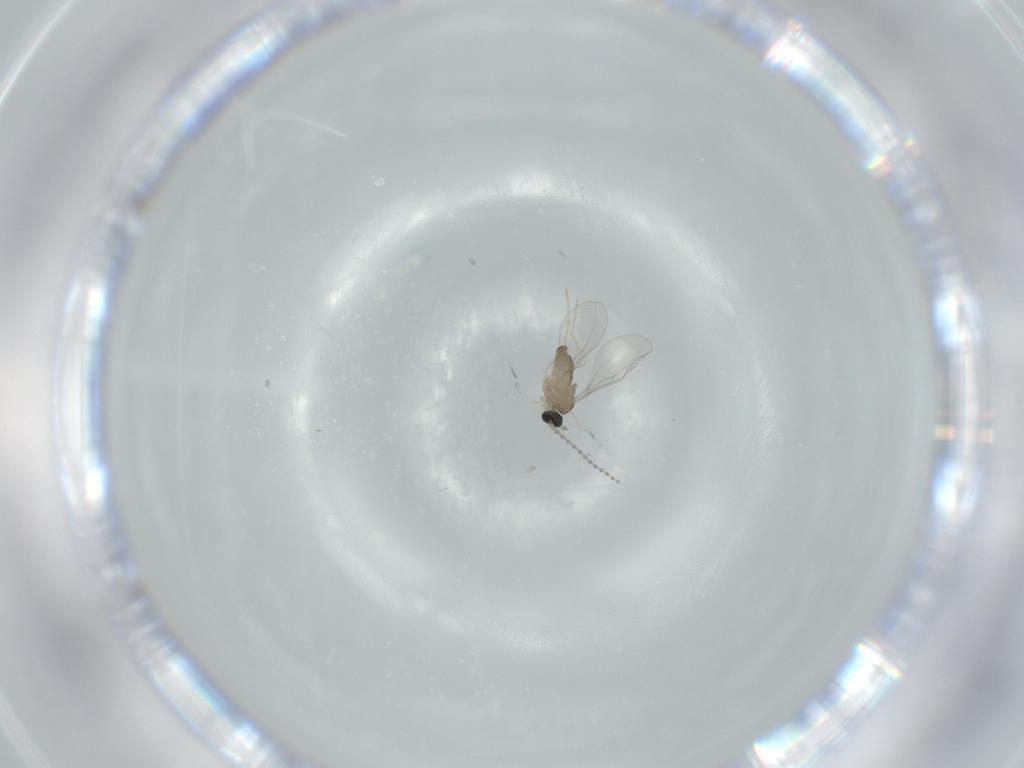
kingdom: Animalia
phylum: Arthropoda
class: Insecta
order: Diptera
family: Cecidomyiidae
